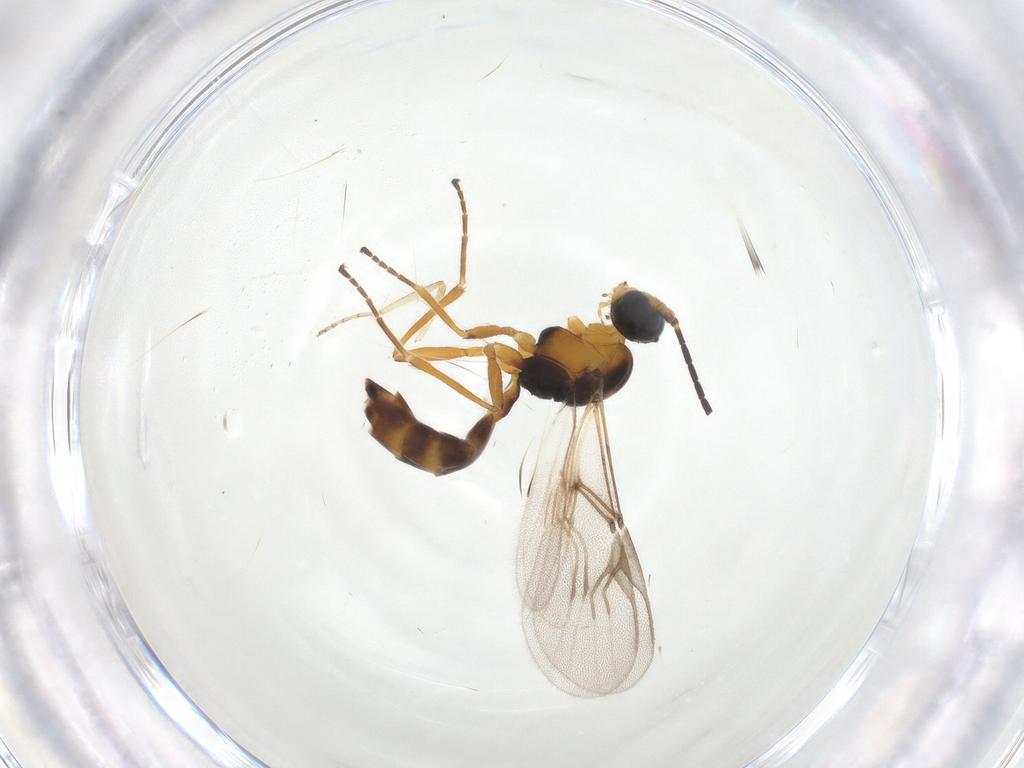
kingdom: Animalia
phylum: Arthropoda
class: Insecta
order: Hymenoptera
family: Braconidae
